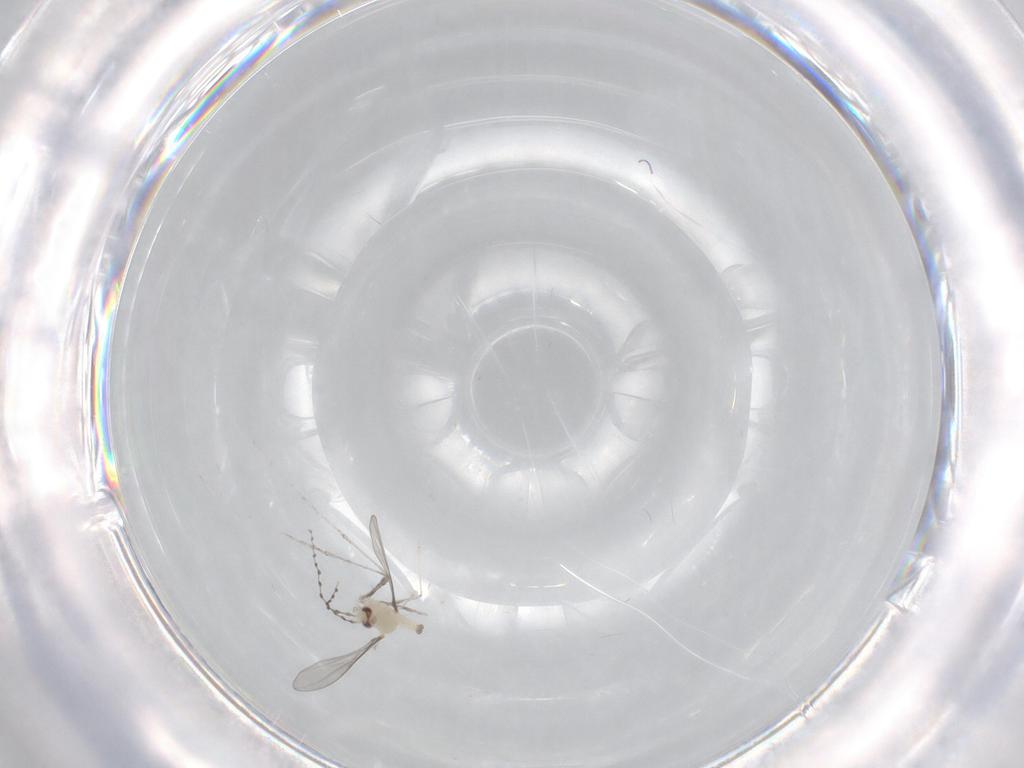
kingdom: Animalia
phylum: Arthropoda
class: Insecta
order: Diptera
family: Cecidomyiidae
